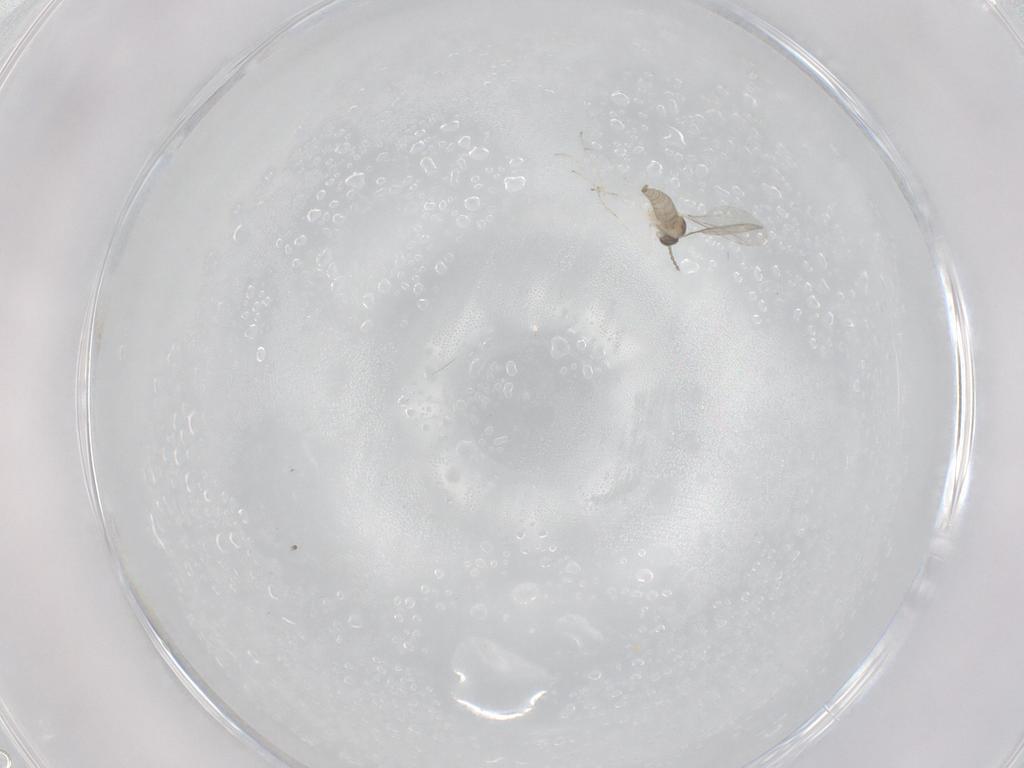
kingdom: Animalia
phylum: Arthropoda
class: Insecta
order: Diptera
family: Cecidomyiidae
